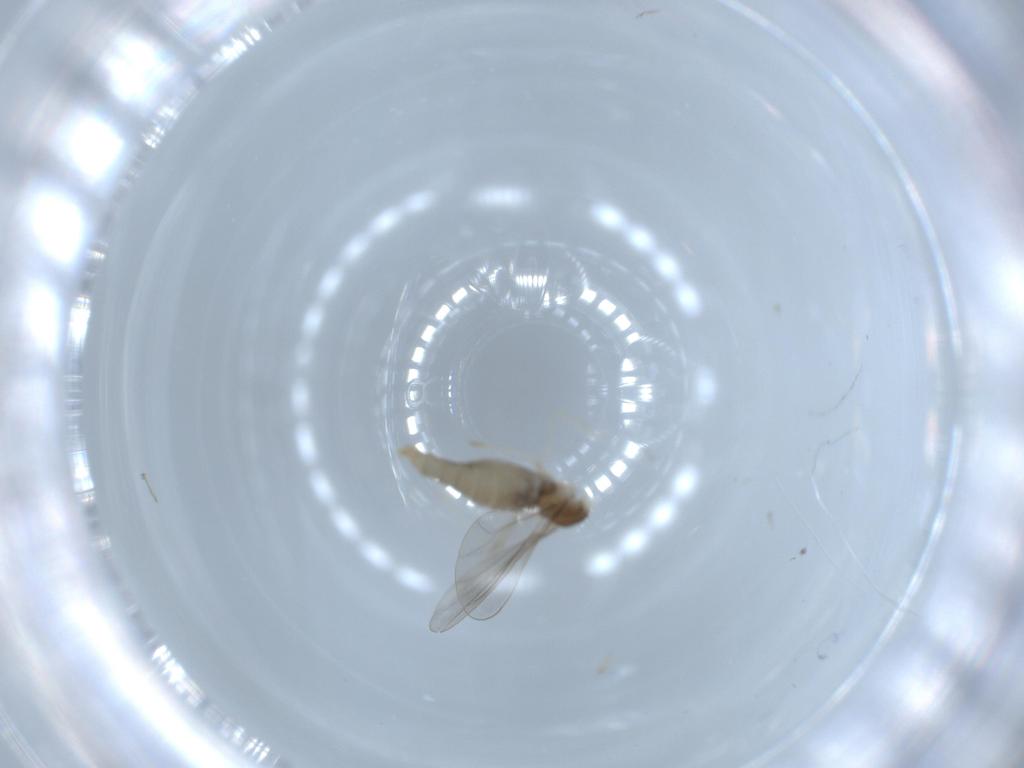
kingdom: Animalia
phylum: Arthropoda
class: Insecta
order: Diptera
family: Cecidomyiidae
